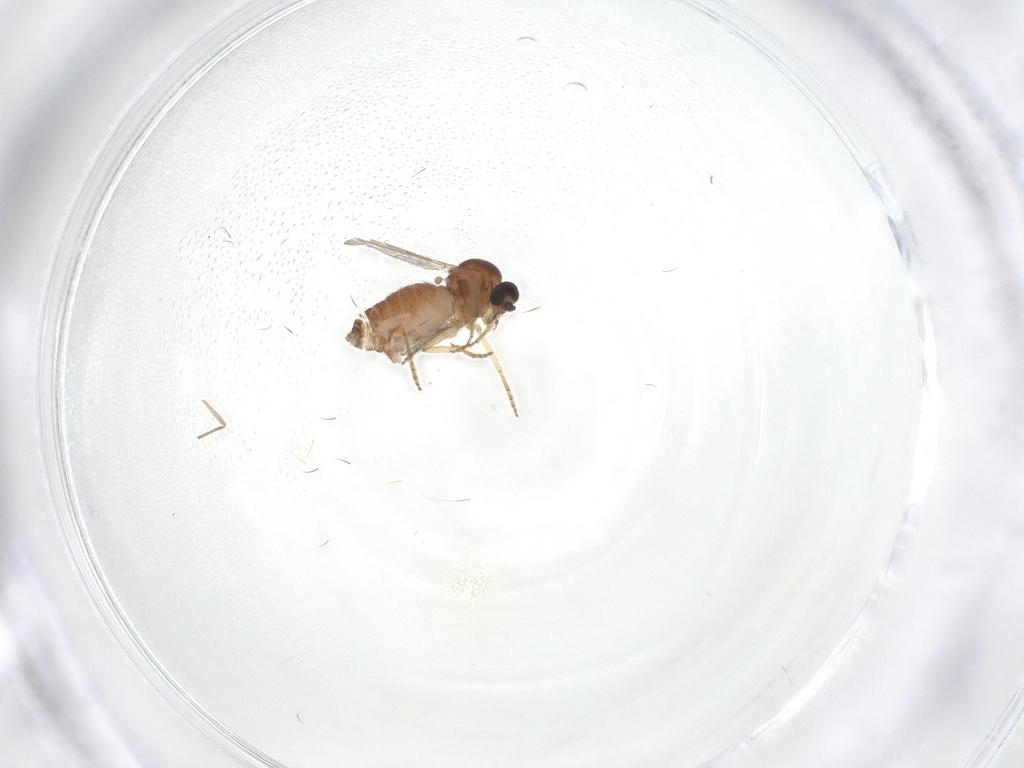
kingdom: Animalia
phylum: Arthropoda
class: Insecta
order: Diptera
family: Ceratopogonidae
